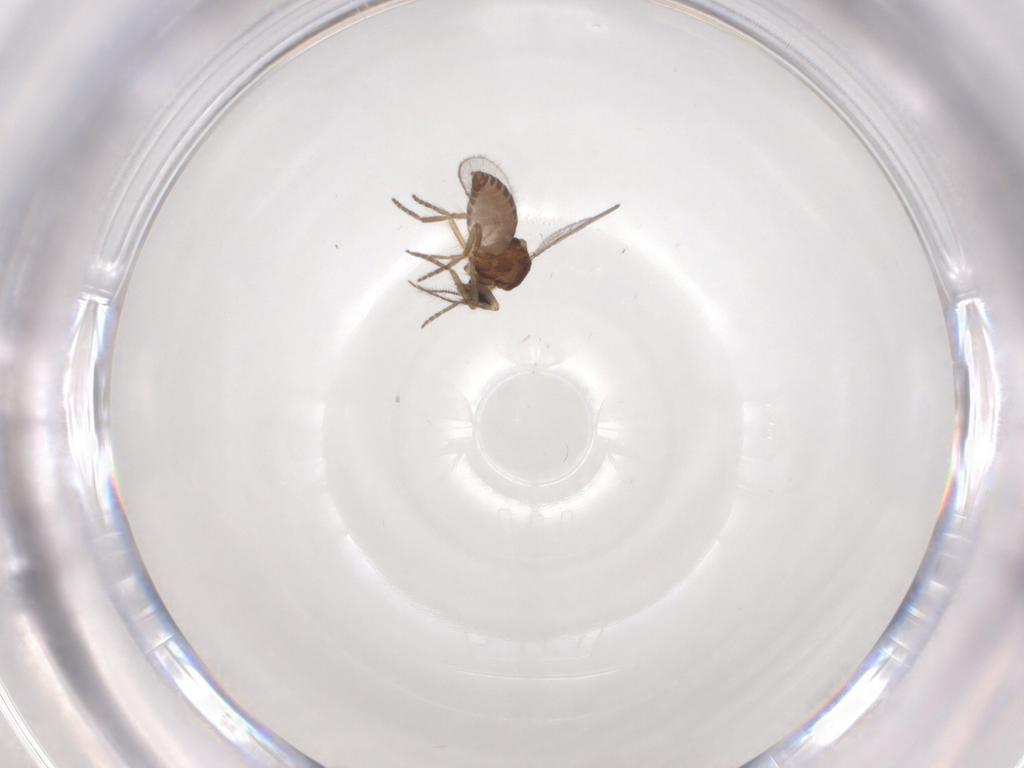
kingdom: Animalia
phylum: Arthropoda
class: Insecta
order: Diptera
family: Ceratopogonidae
